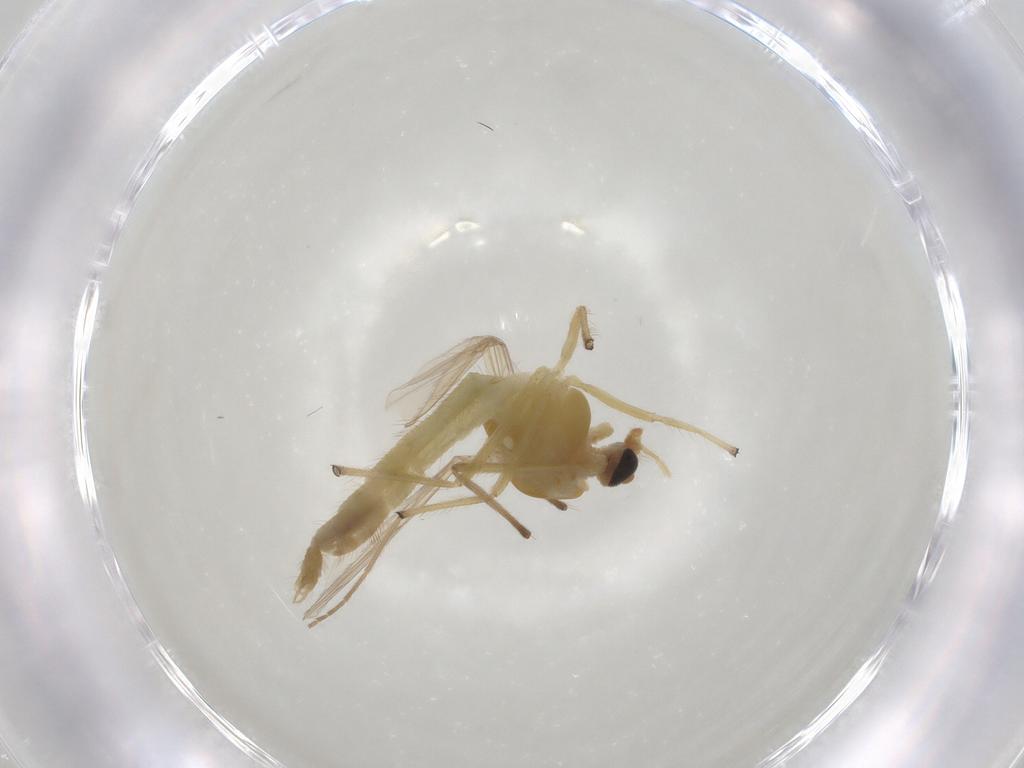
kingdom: Animalia
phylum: Arthropoda
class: Insecta
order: Diptera
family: Chironomidae
